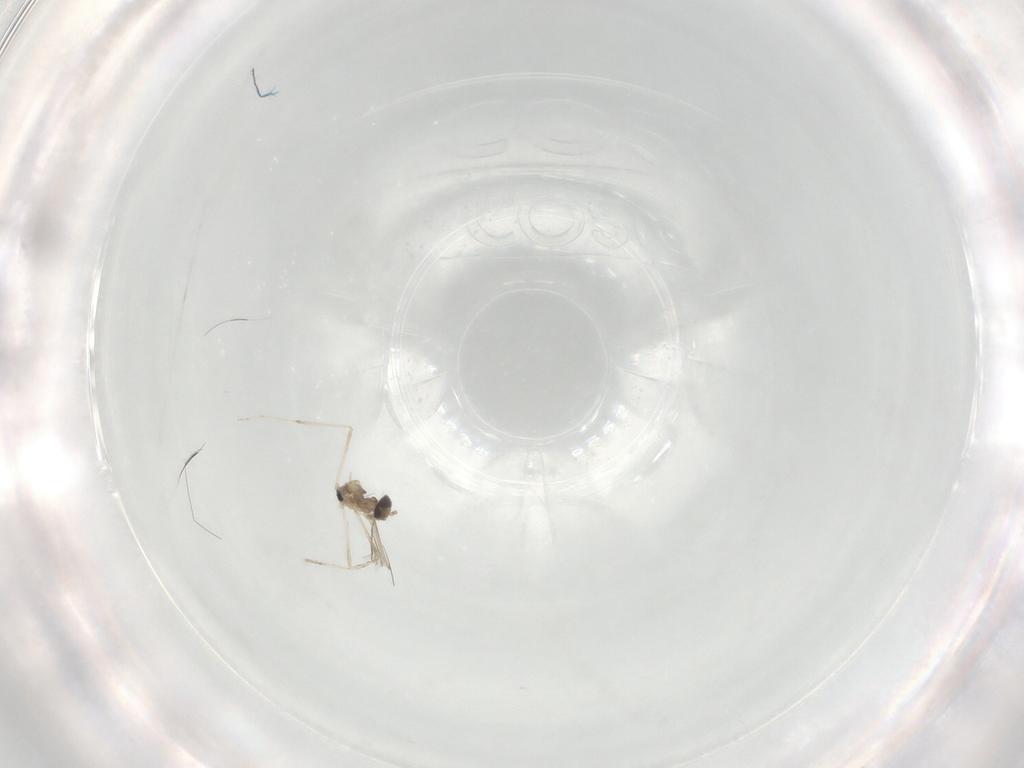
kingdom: Animalia
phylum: Arthropoda
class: Insecta
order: Diptera
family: Cecidomyiidae
